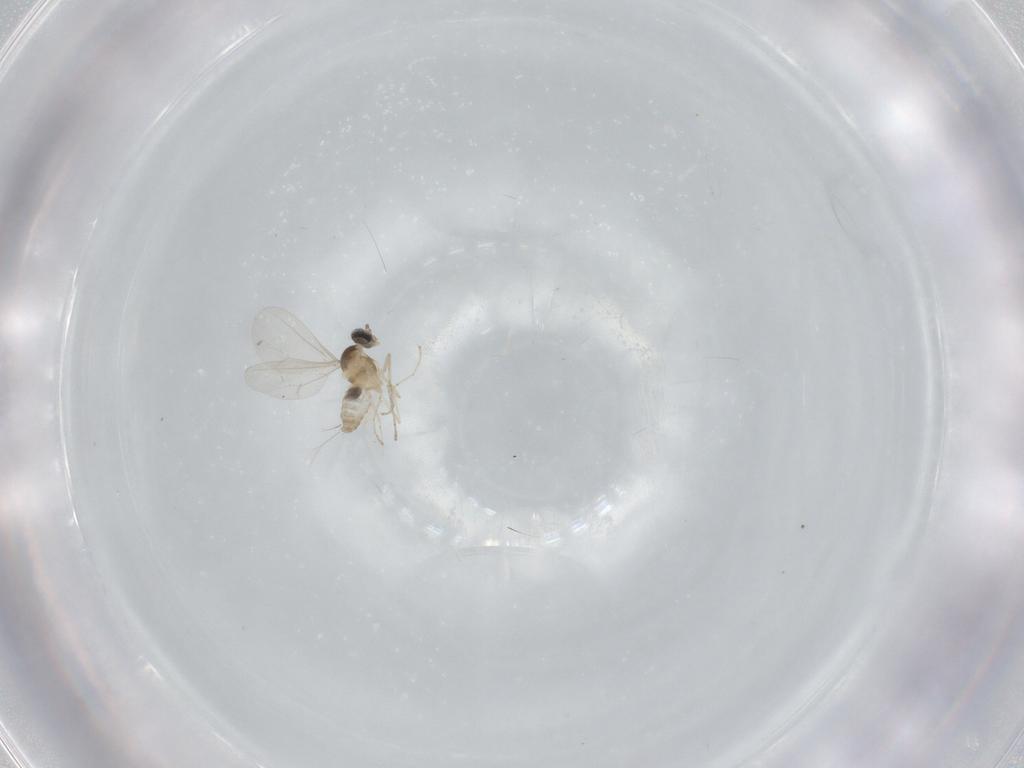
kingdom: Animalia
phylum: Arthropoda
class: Insecta
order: Diptera
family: Cecidomyiidae
